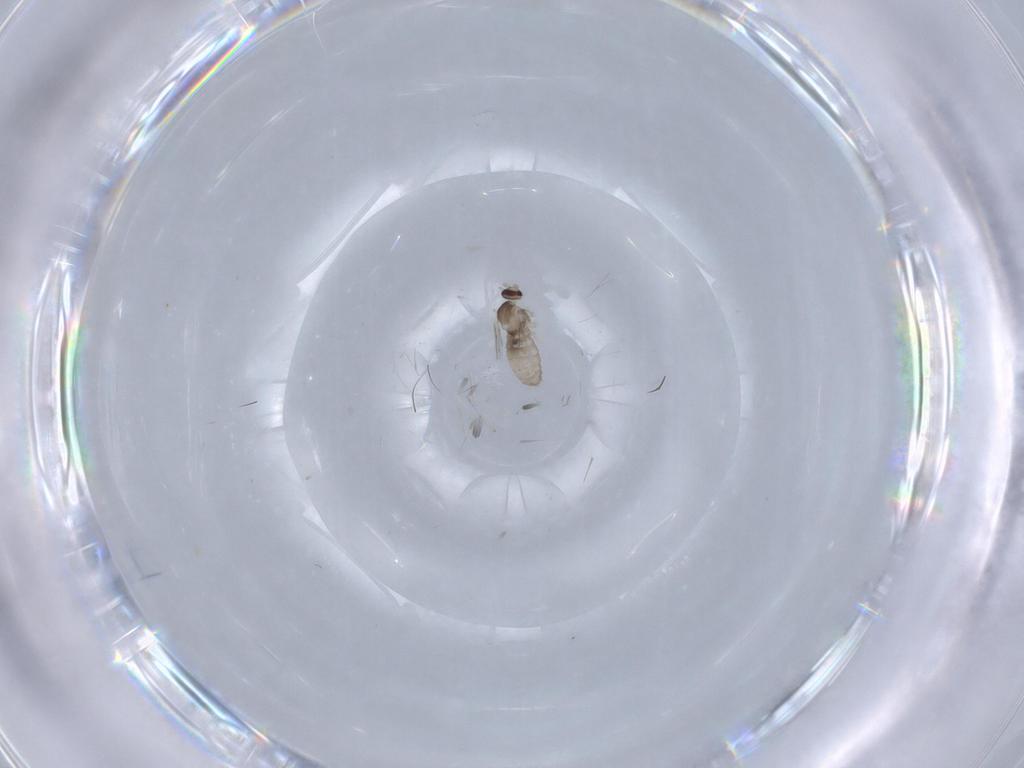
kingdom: Animalia
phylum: Arthropoda
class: Insecta
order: Diptera
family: Cecidomyiidae
